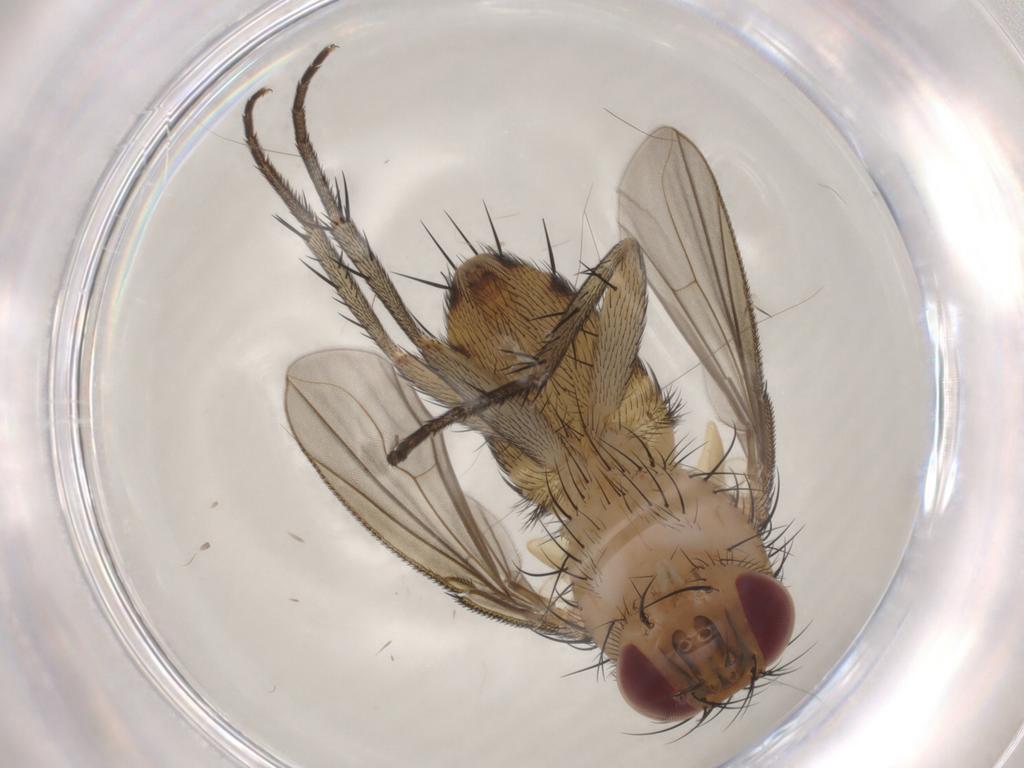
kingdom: Animalia
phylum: Arthropoda
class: Insecta
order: Diptera
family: Tachinidae
